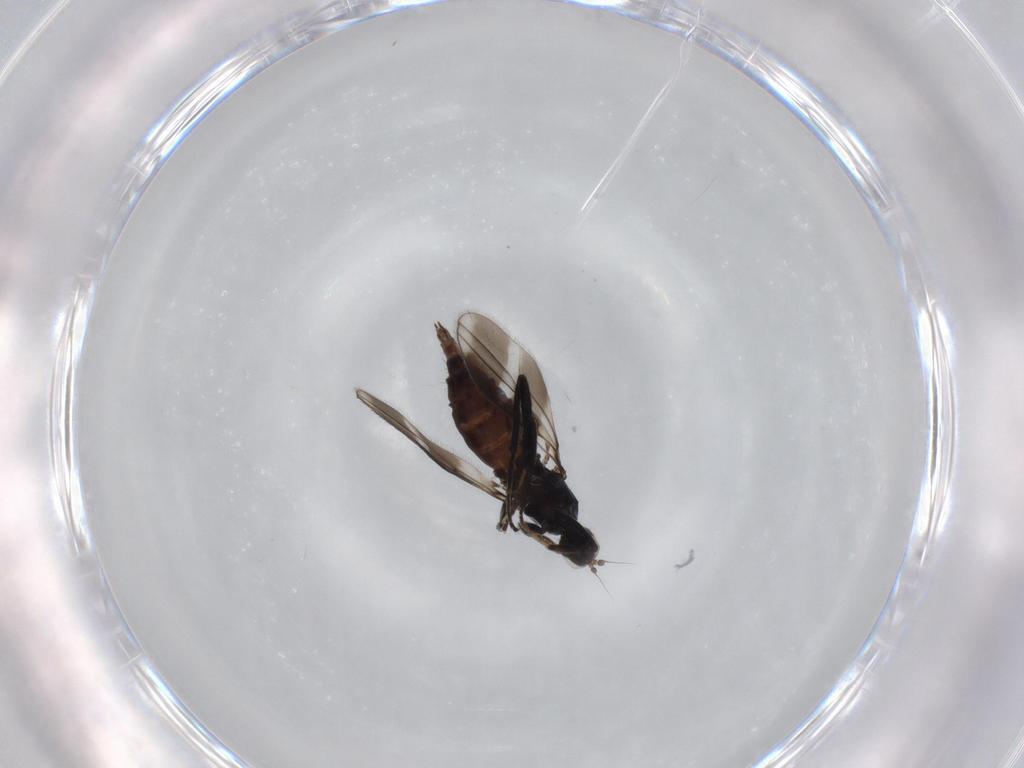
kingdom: Animalia
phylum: Arthropoda
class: Insecta
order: Diptera
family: Hybotidae
